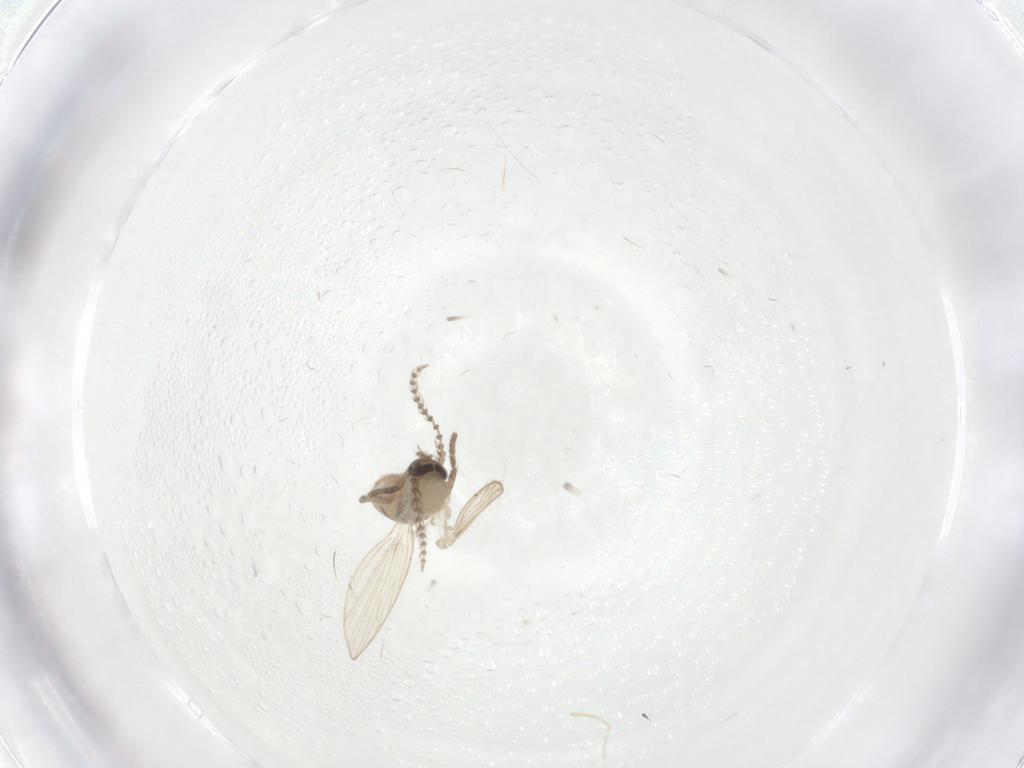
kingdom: Animalia
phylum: Arthropoda
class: Insecta
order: Diptera
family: Psychodidae
